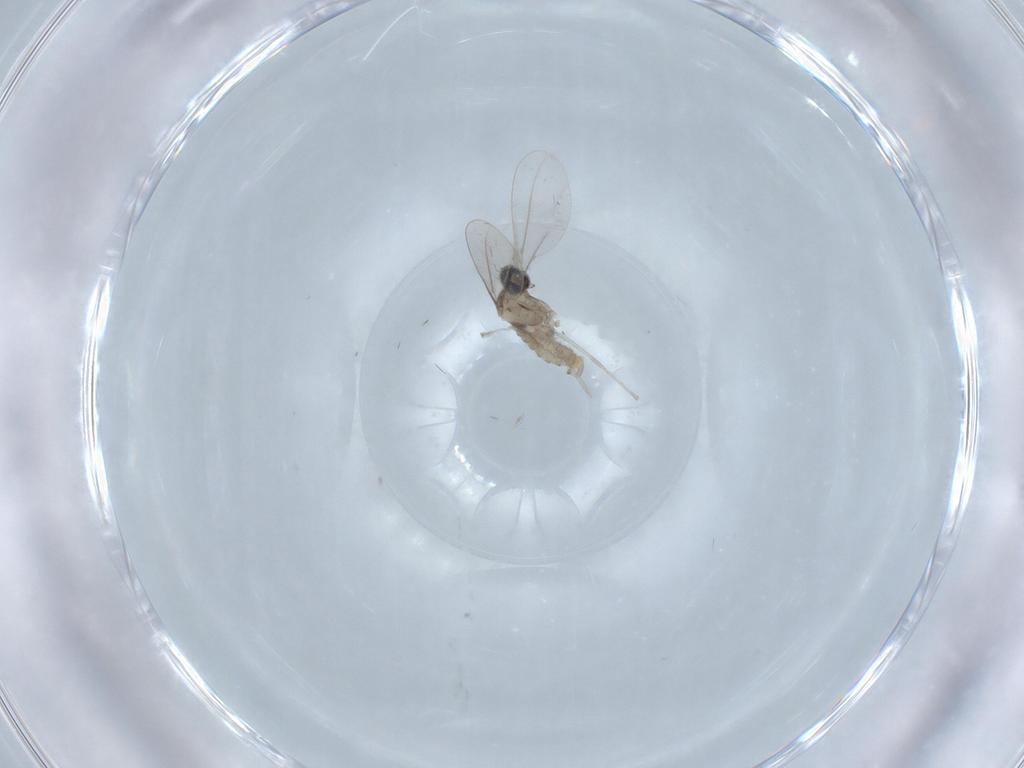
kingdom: Animalia
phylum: Arthropoda
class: Insecta
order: Diptera
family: Cecidomyiidae
